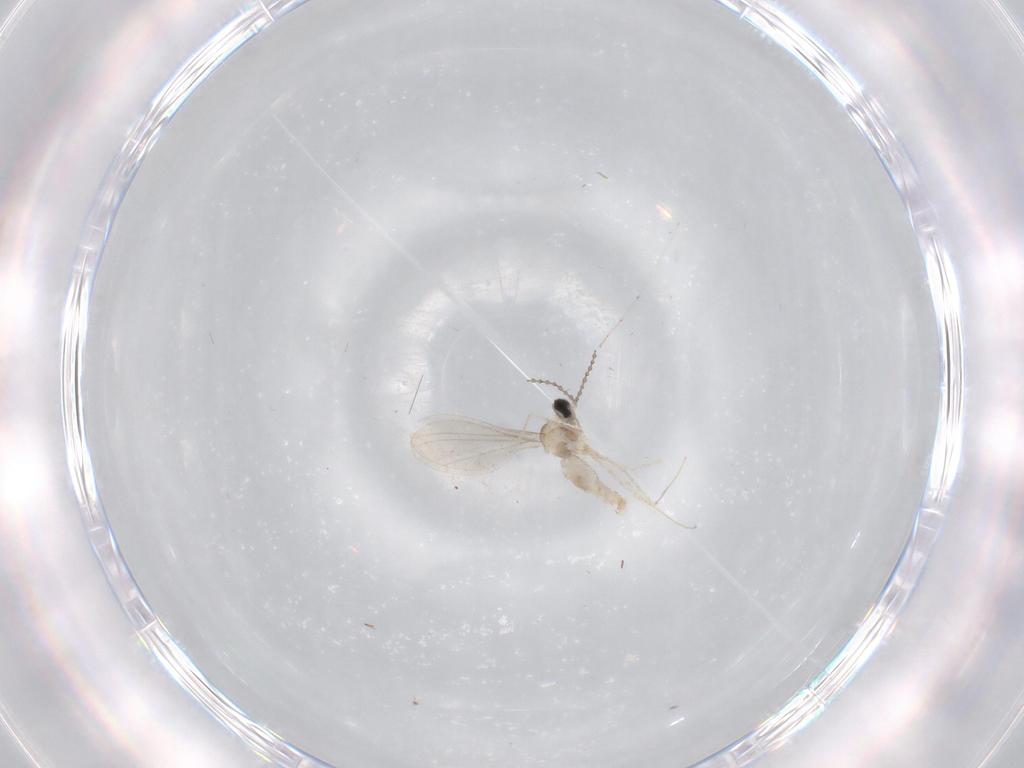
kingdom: Animalia
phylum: Arthropoda
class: Insecta
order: Diptera
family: Cecidomyiidae
